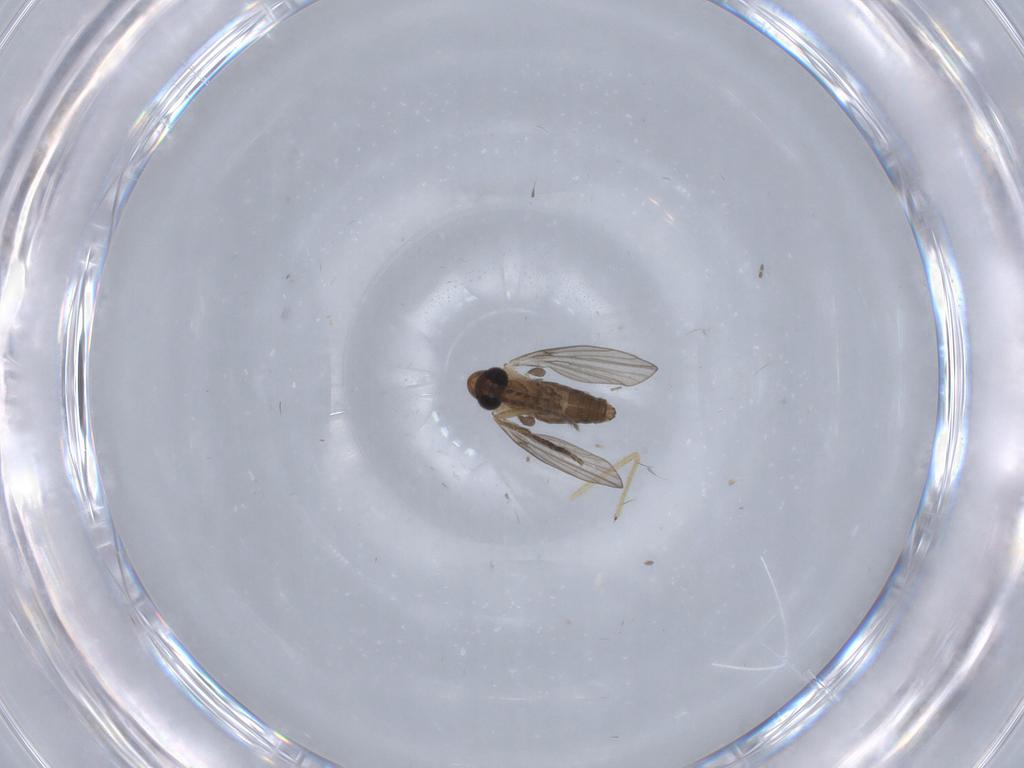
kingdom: Animalia
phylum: Arthropoda
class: Insecta
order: Diptera
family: Chironomidae
